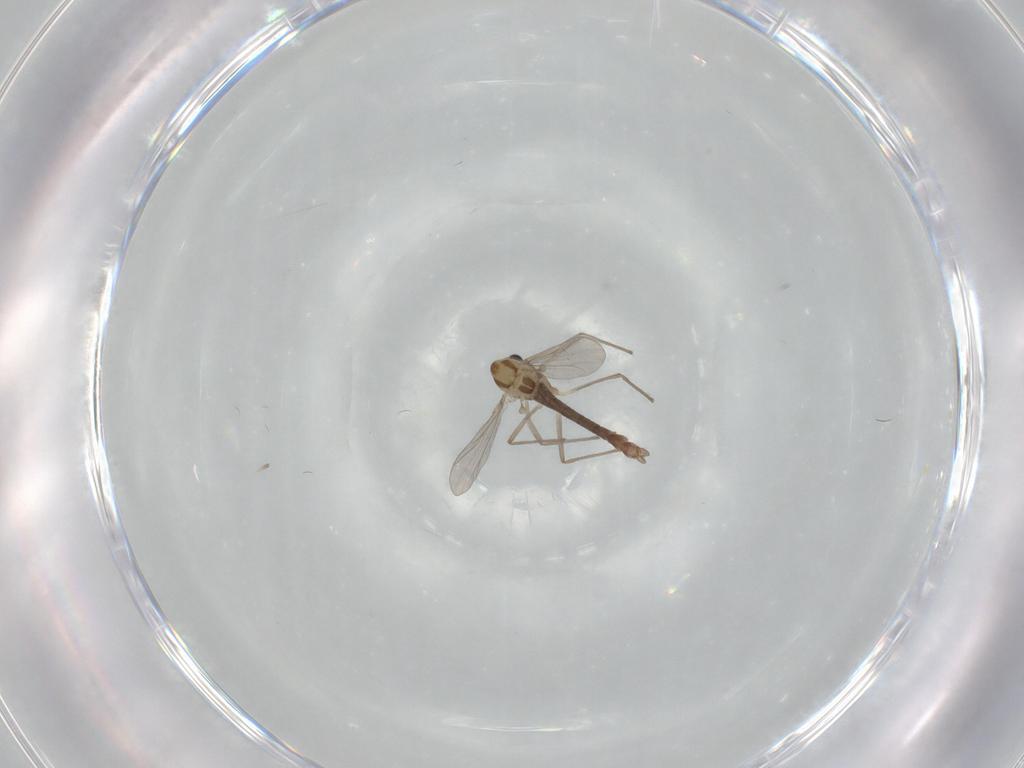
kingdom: Animalia
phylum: Arthropoda
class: Insecta
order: Diptera
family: Chironomidae
